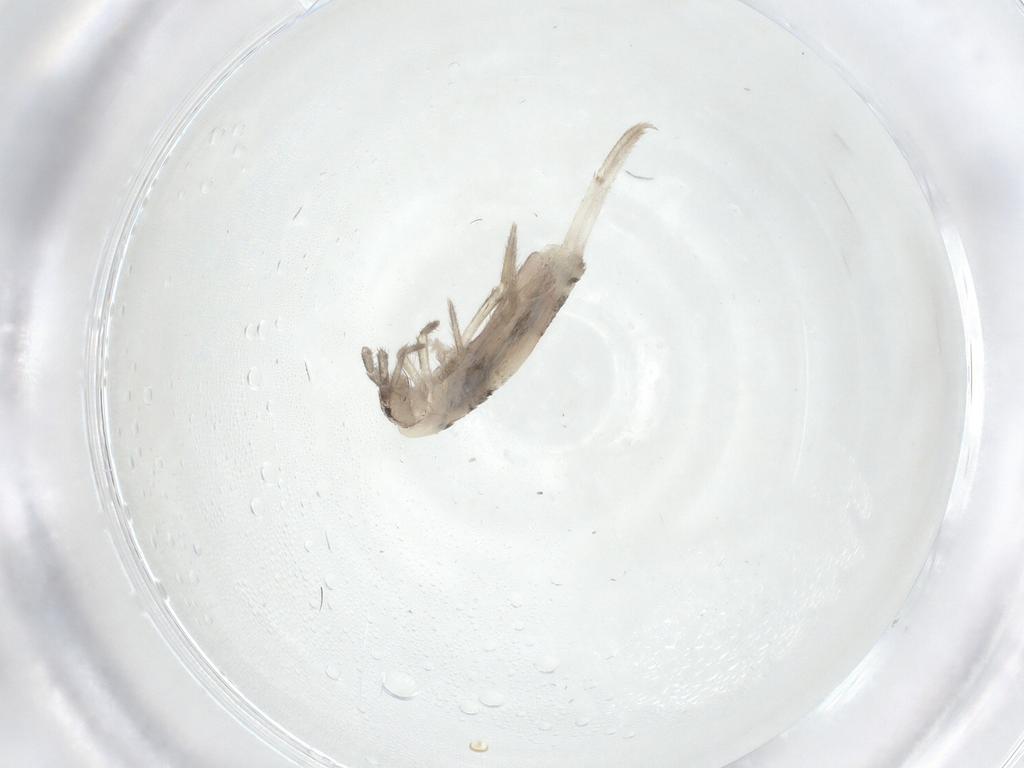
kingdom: Animalia
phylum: Arthropoda
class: Collembola
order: Entomobryomorpha
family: Entomobryidae
